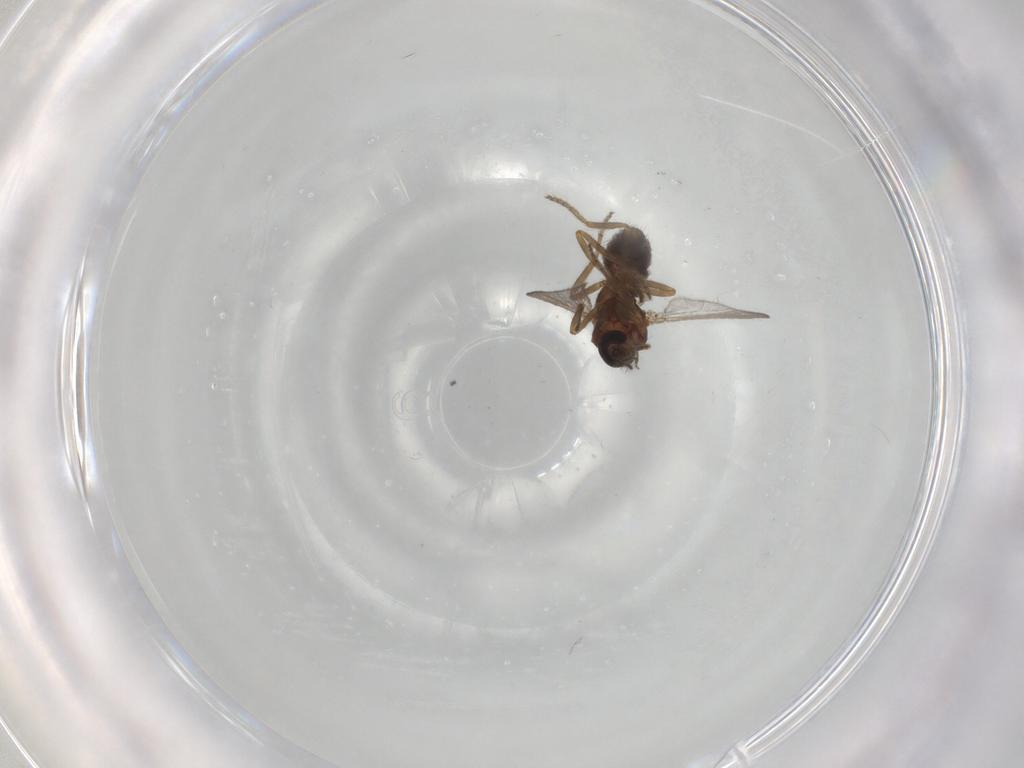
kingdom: Animalia
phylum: Arthropoda
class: Insecta
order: Diptera
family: Ceratopogonidae
